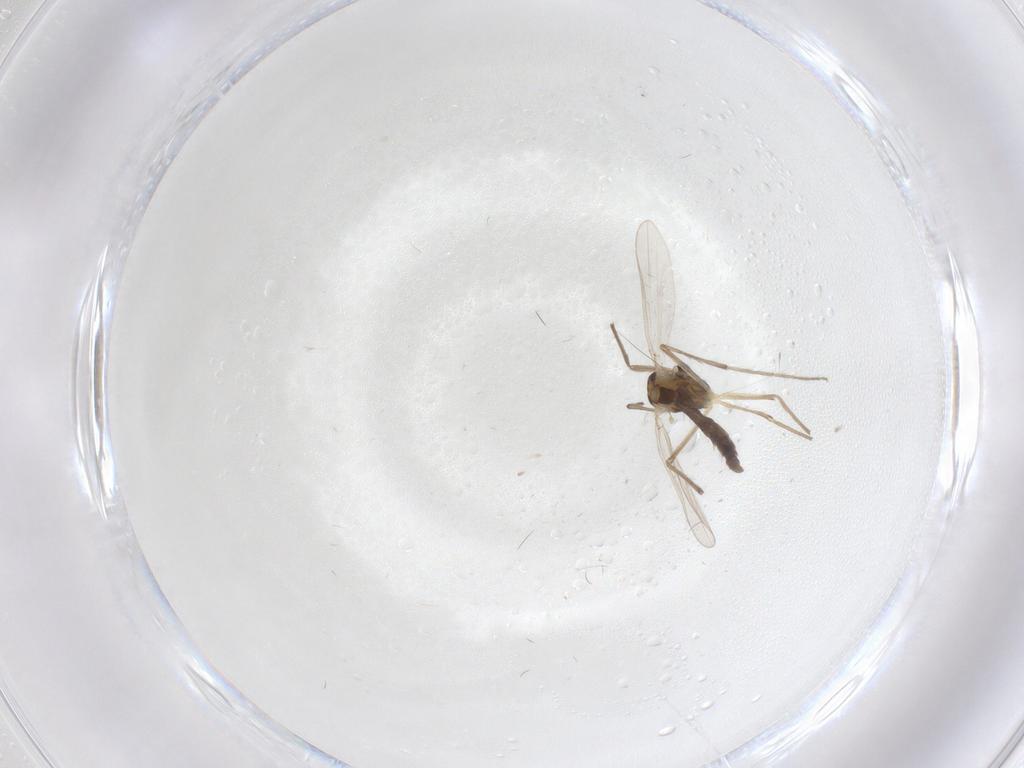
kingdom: Animalia
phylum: Arthropoda
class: Insecta
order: Diptera
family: Chironomidae
